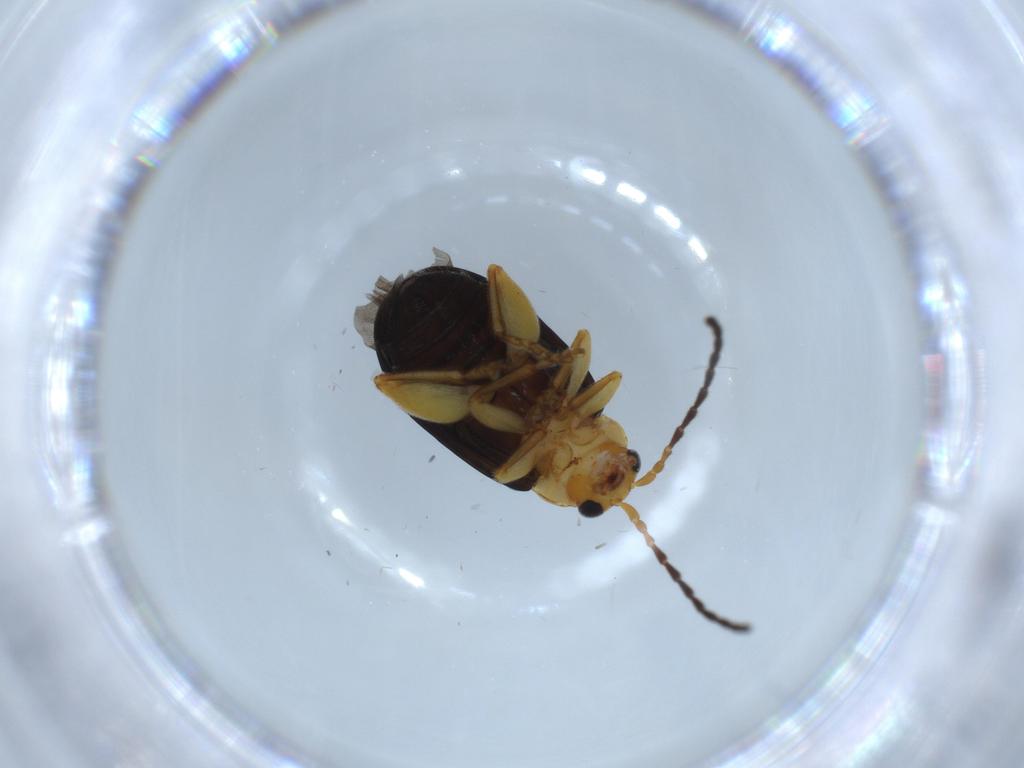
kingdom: Animalia
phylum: Arthropoda
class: Insecta
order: Coleoptera
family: Chrysomelidae
